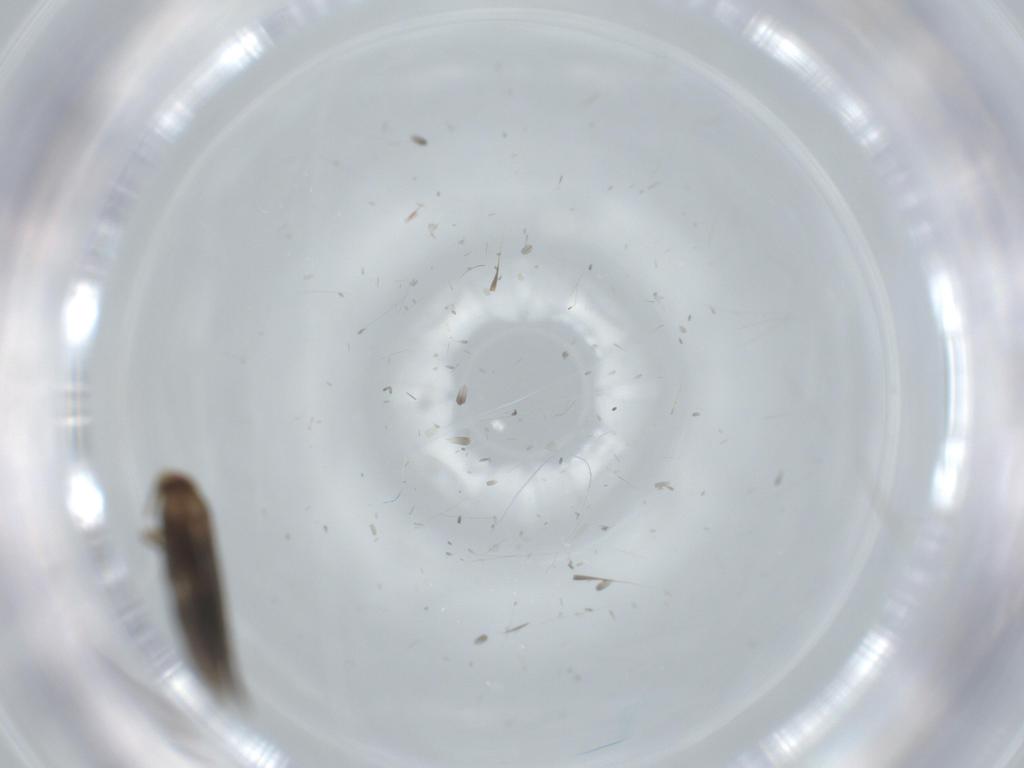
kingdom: Animalia
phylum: Arthropoda
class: Insecta
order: Lepidoptera
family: Nepticulidae
